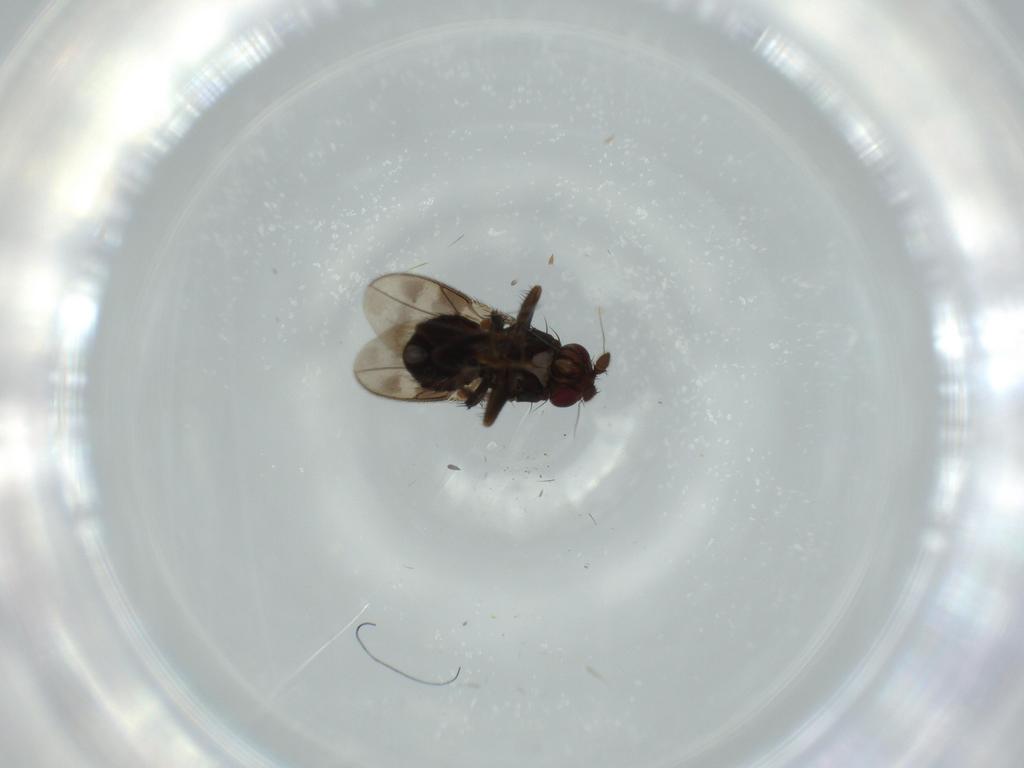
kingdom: Animalia
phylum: Arthropoda
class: Insecta
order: Diptera
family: Sphaeroceridae
